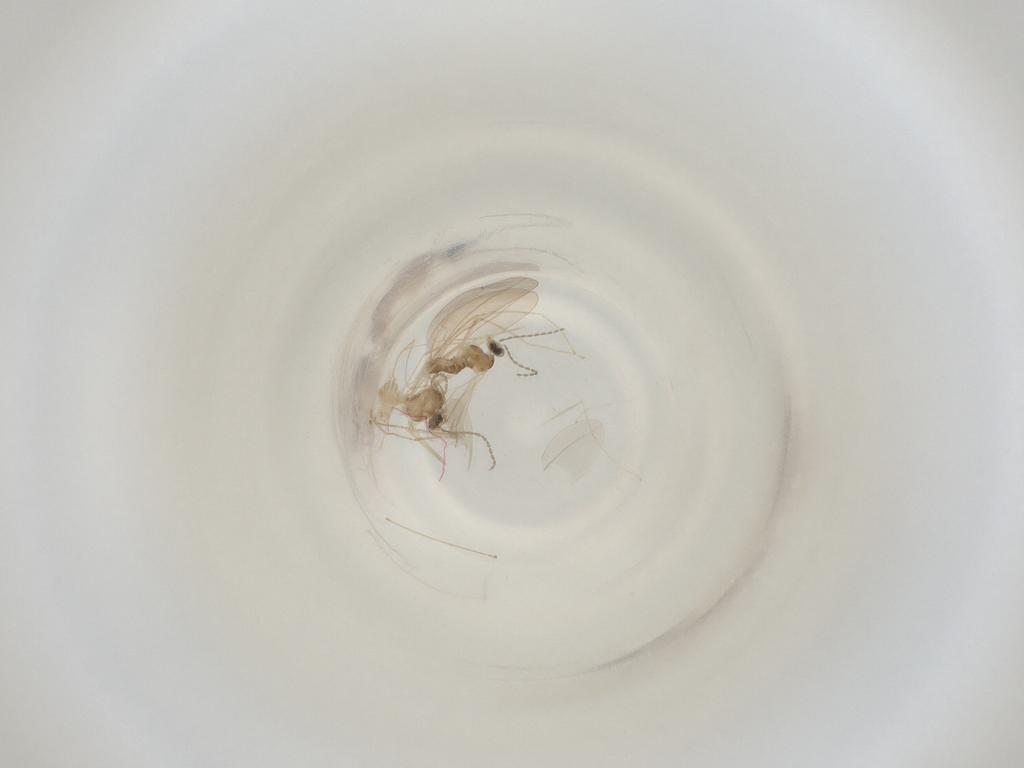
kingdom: Animalia
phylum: Arthropoda
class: Insecta
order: Diptera
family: Cecidomyiidae
